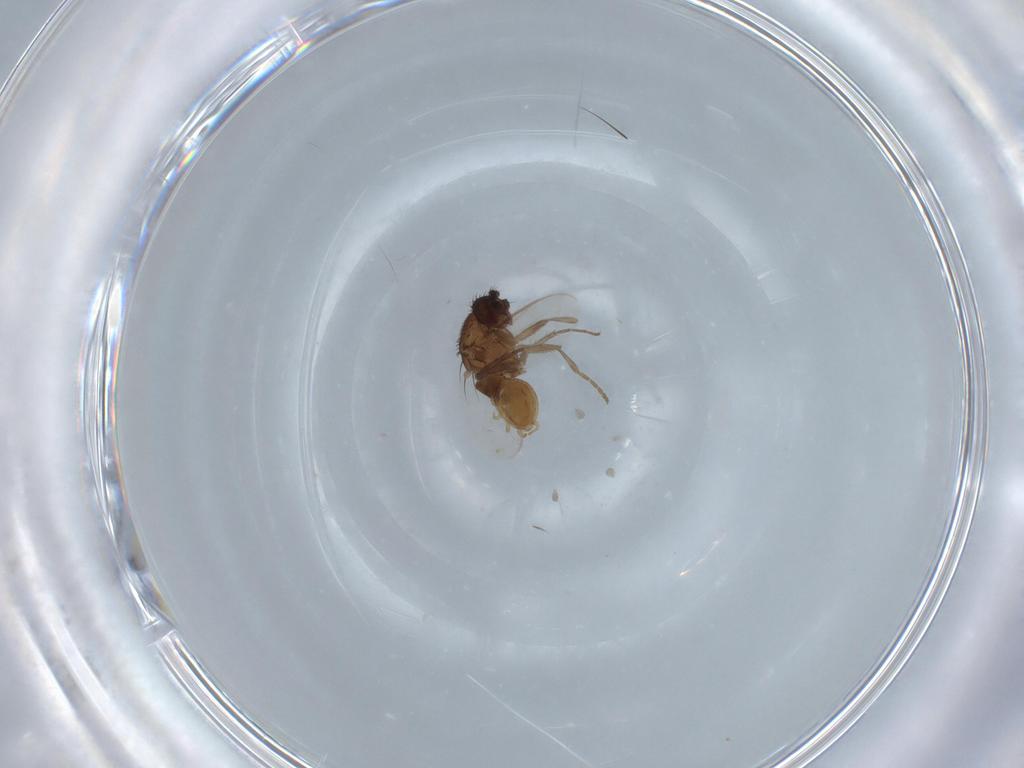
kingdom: Animalia
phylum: Arthropoda
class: Insecta
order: Diptera
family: Sphaeroceridae
